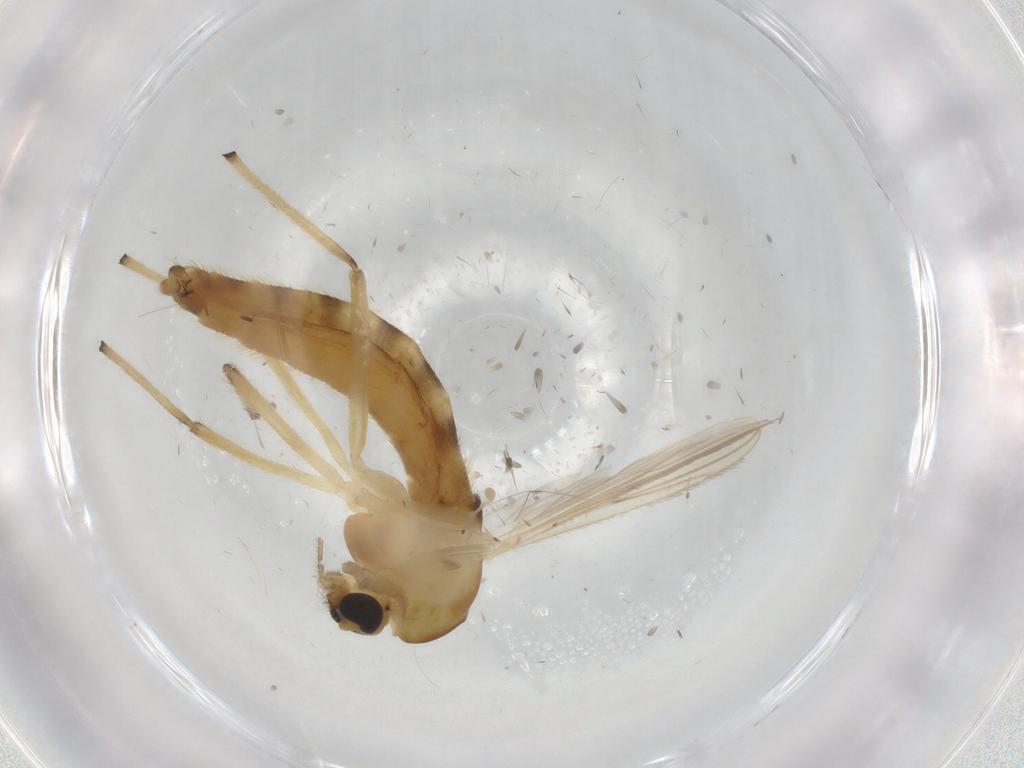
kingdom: Animalia
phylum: Arthropoda
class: Insecta
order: Diptera
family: Chironomidae
